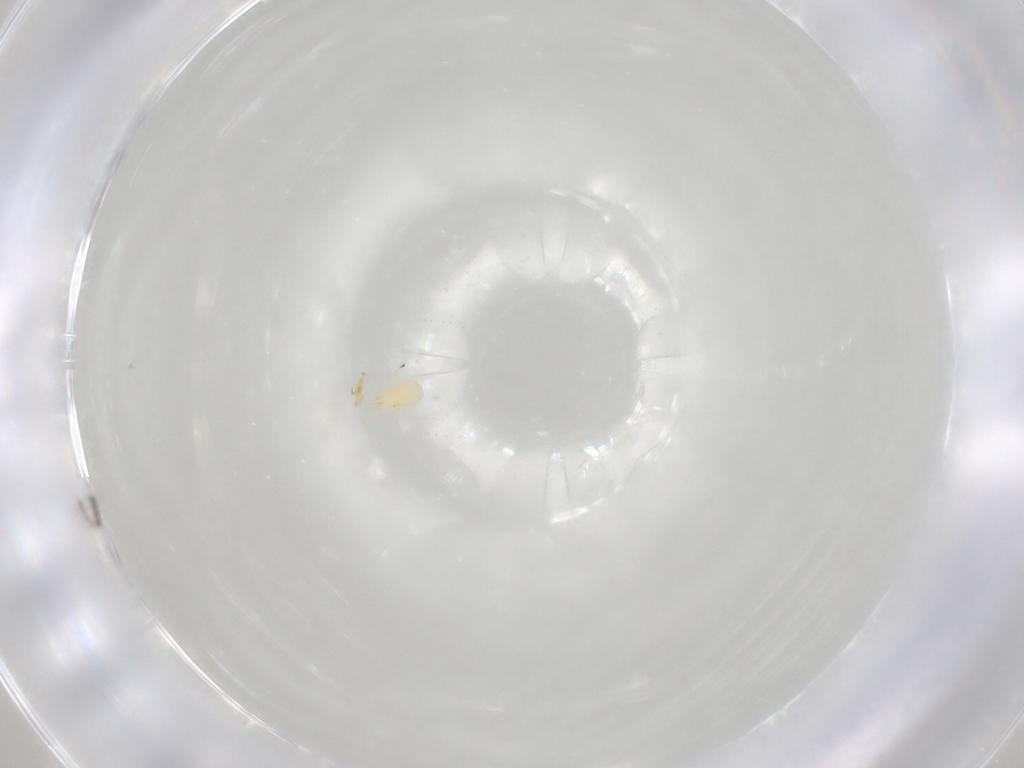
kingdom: Animalia
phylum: Arthropoda
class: Arachnida
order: Mesostigmata
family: Phytoseiidae
